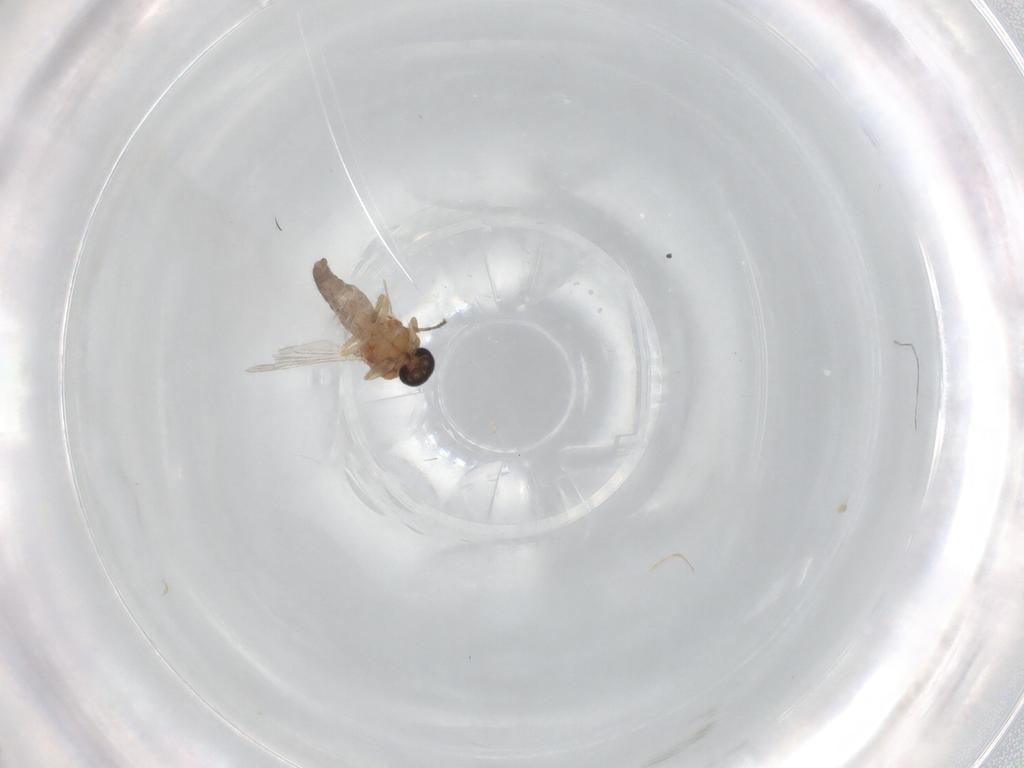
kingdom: Animalia
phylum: Arthropoda
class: Insecta
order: Diptera
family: Ceratopogonidae
